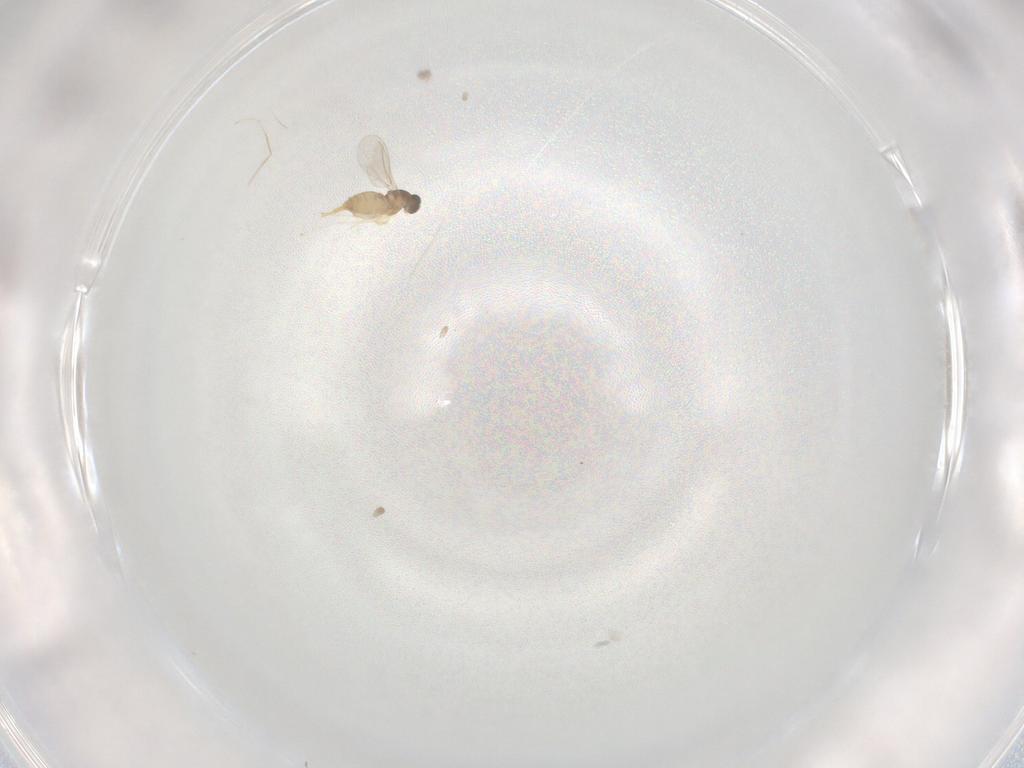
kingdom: Animalia
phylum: Arthropoda
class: Insecta
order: Diptera
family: Cecidomyiidae
